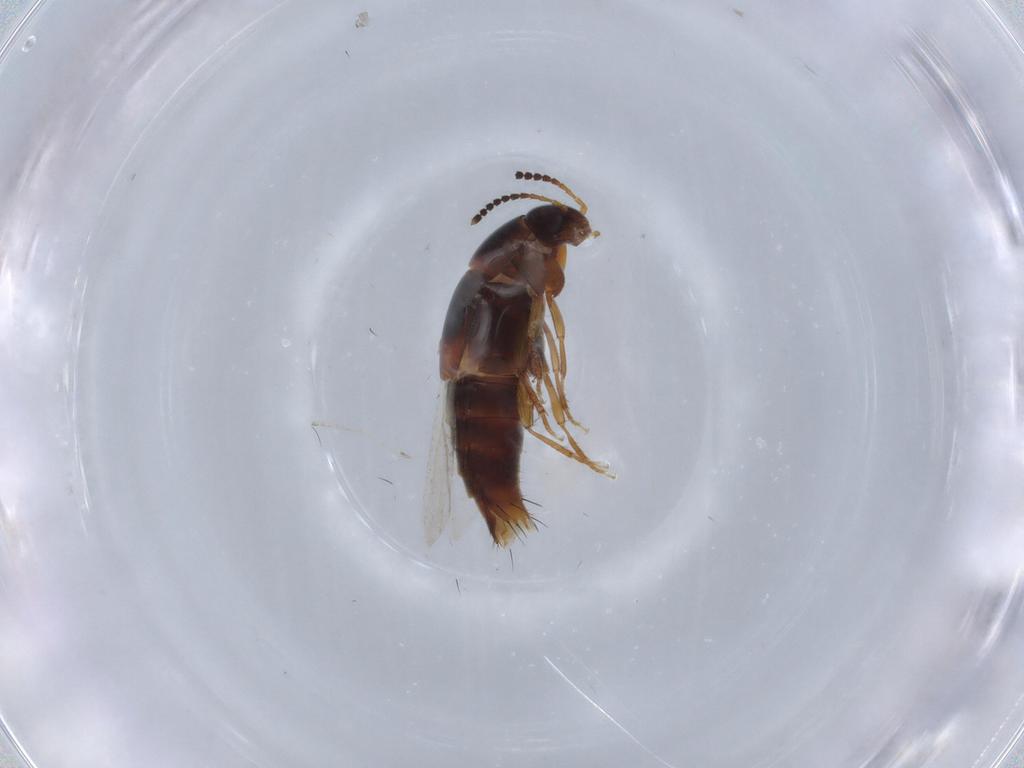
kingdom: Animalia
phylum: Arthropoda
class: Insecta
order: Coleoptera
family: Staphylinidae
